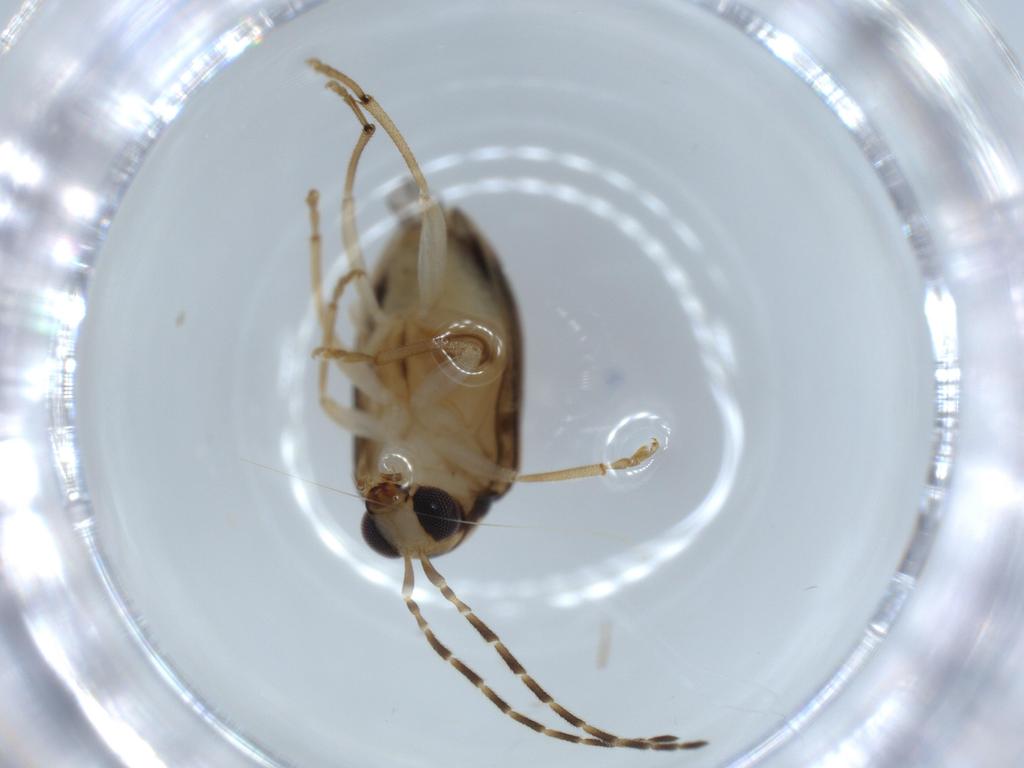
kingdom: Animalia
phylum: Arthropoda
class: Insecta
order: Coleoptera
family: Chrysomelidae
